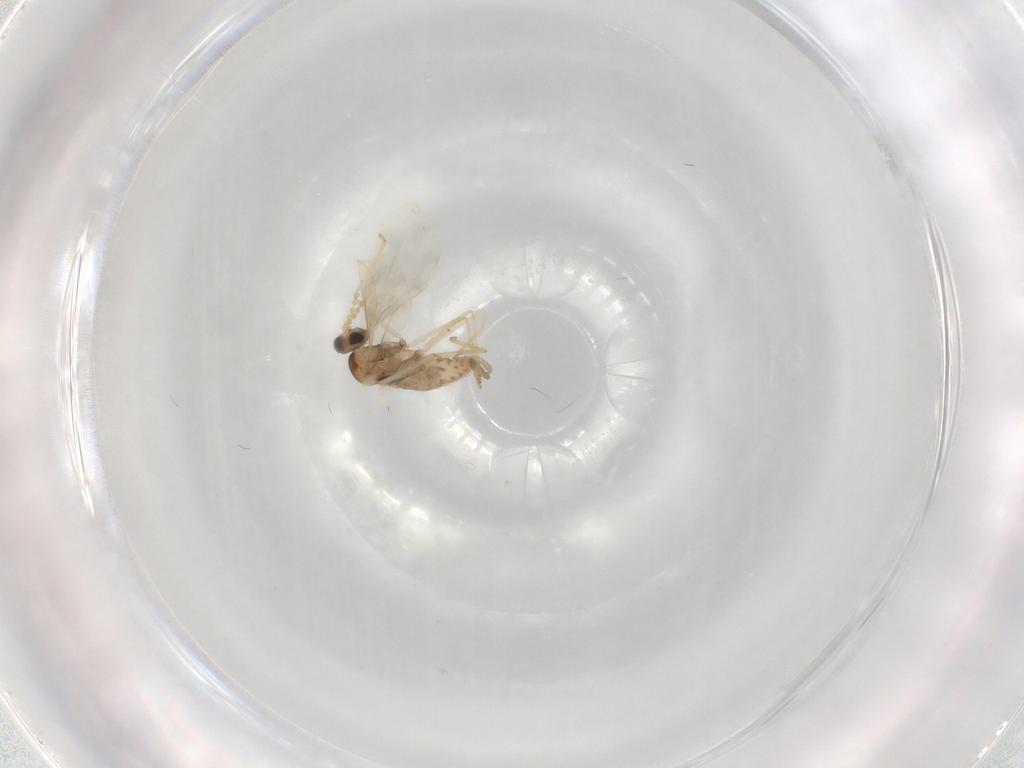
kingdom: Animalia
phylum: Arthropoda
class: Insecta
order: Diptera
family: Cecidomyiidae
